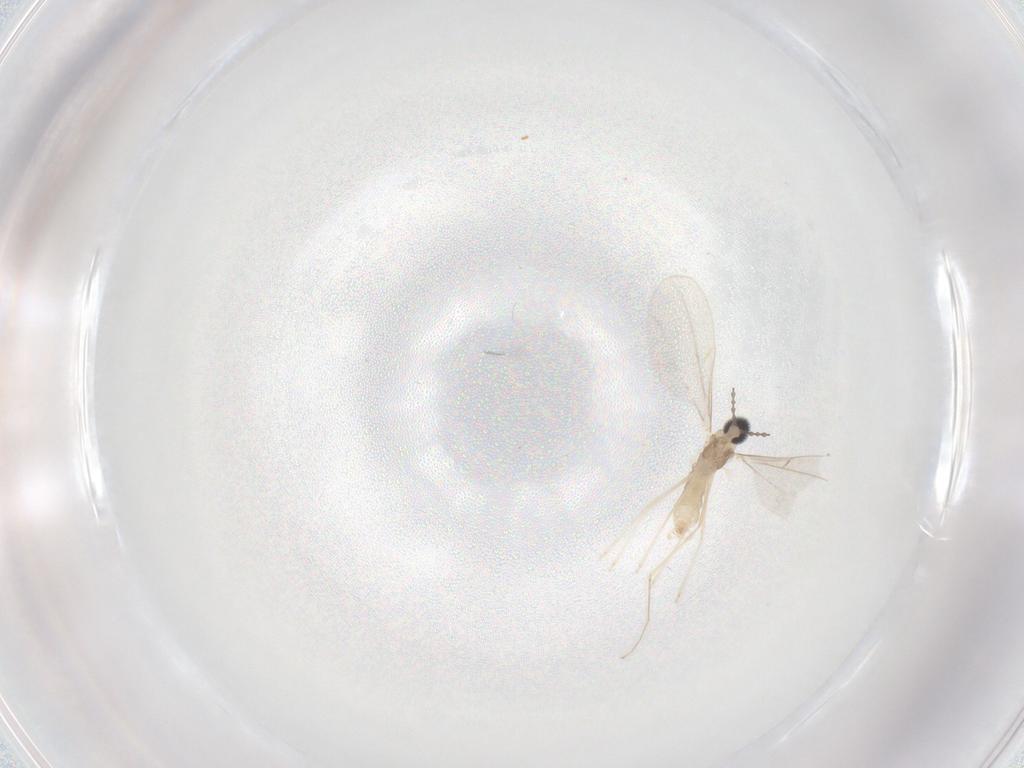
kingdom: Animalia
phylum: Arthropoda
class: Insecta
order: Diptera
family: Cecidomyiidae
